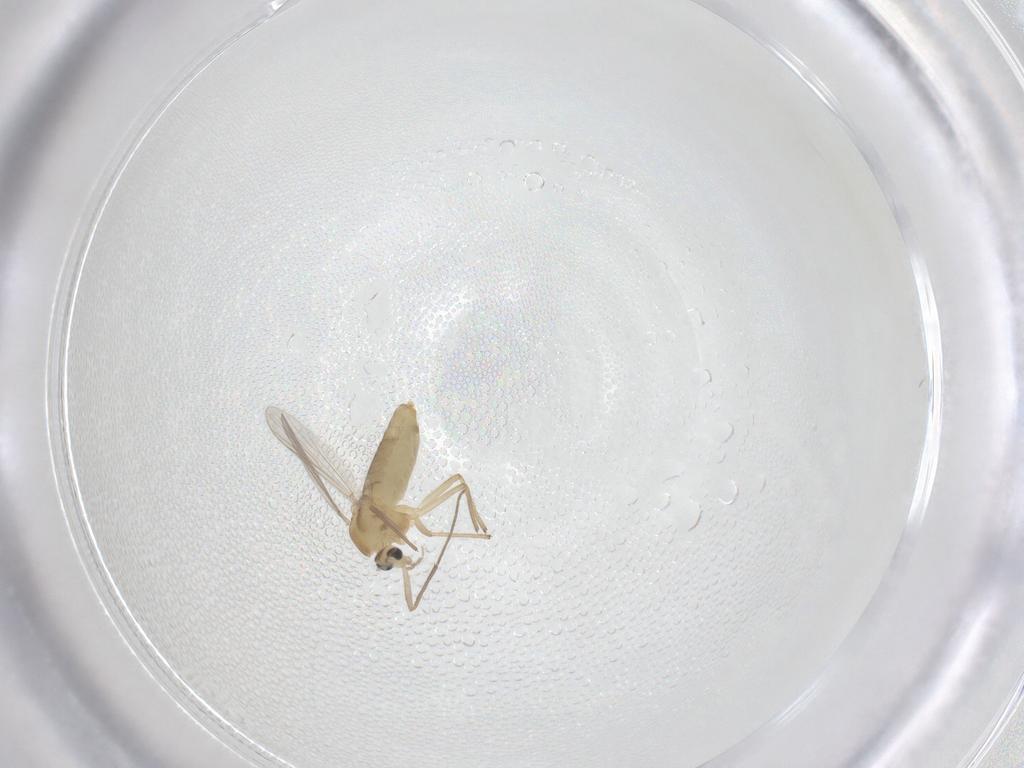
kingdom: Animalia
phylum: Arthropoda
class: Insecta
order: Diptera
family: Chironomidae
